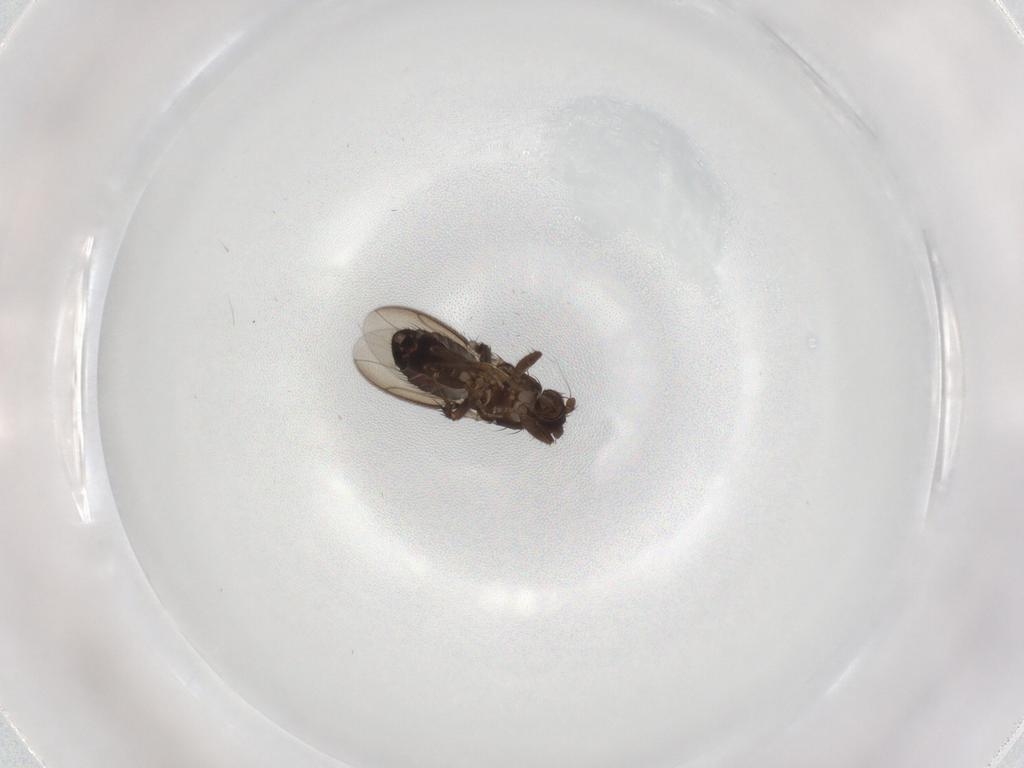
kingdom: Animalia
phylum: Arthropoda
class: Insecta
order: Diptera
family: Sphaeroceridae
